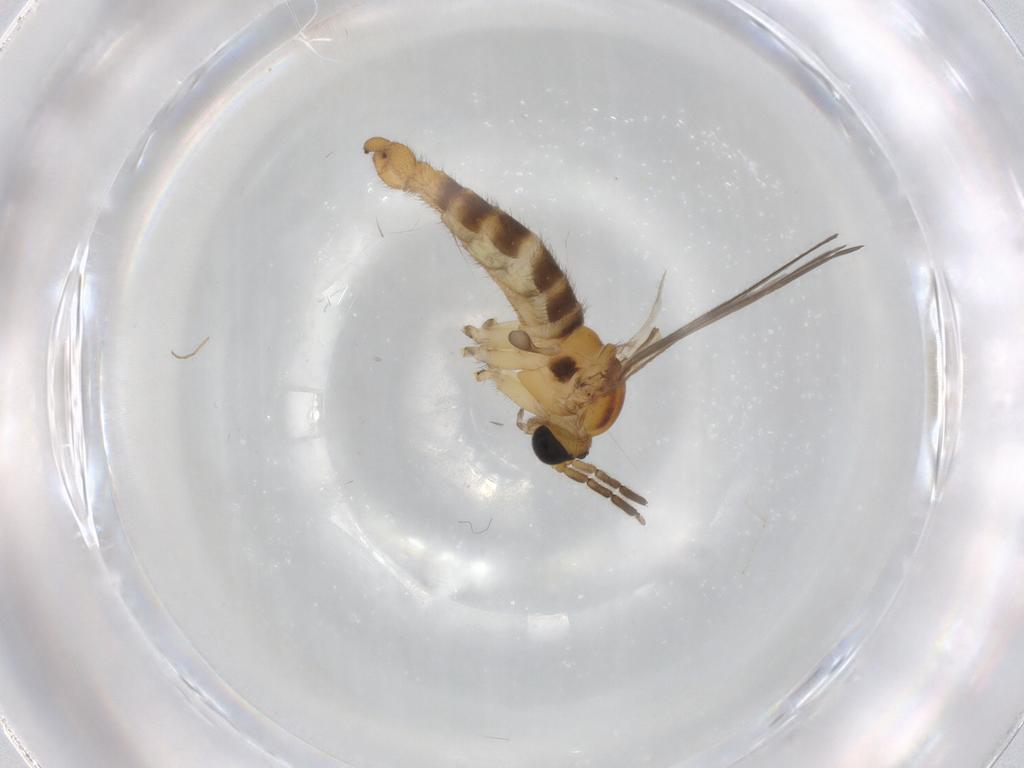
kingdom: Animalia
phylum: Arthropoda
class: Insecta
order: Diptera
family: Sciaridae
